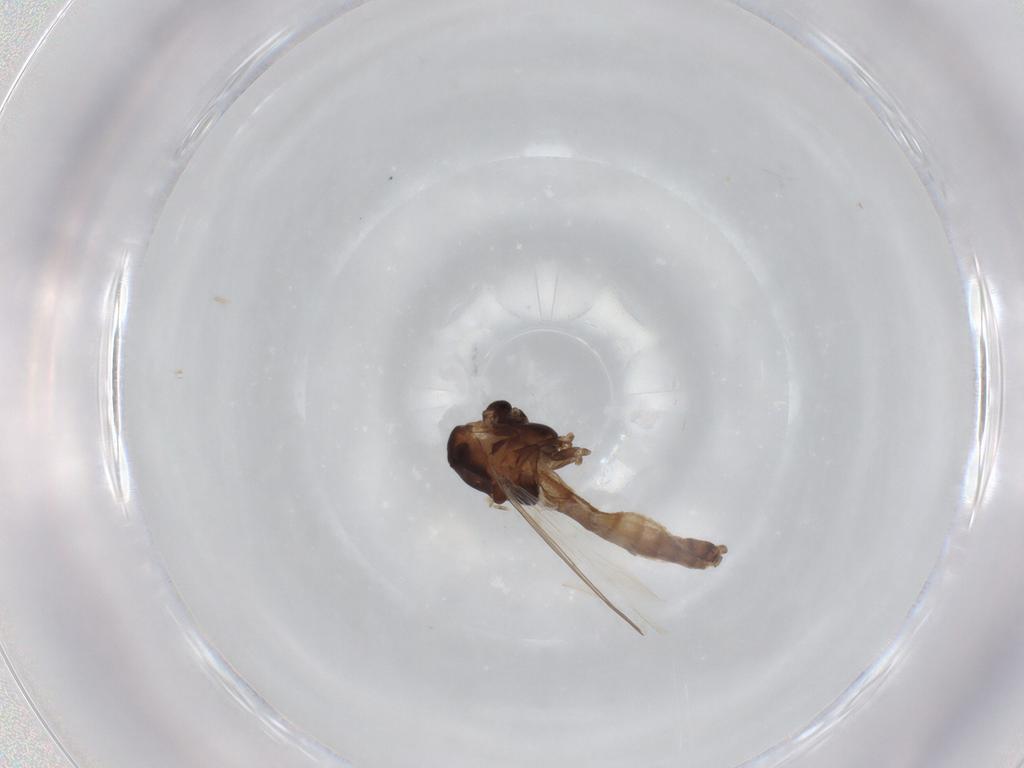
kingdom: Animalia
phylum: Arthropoda
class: Insecta
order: Diptera
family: Chironomidae
